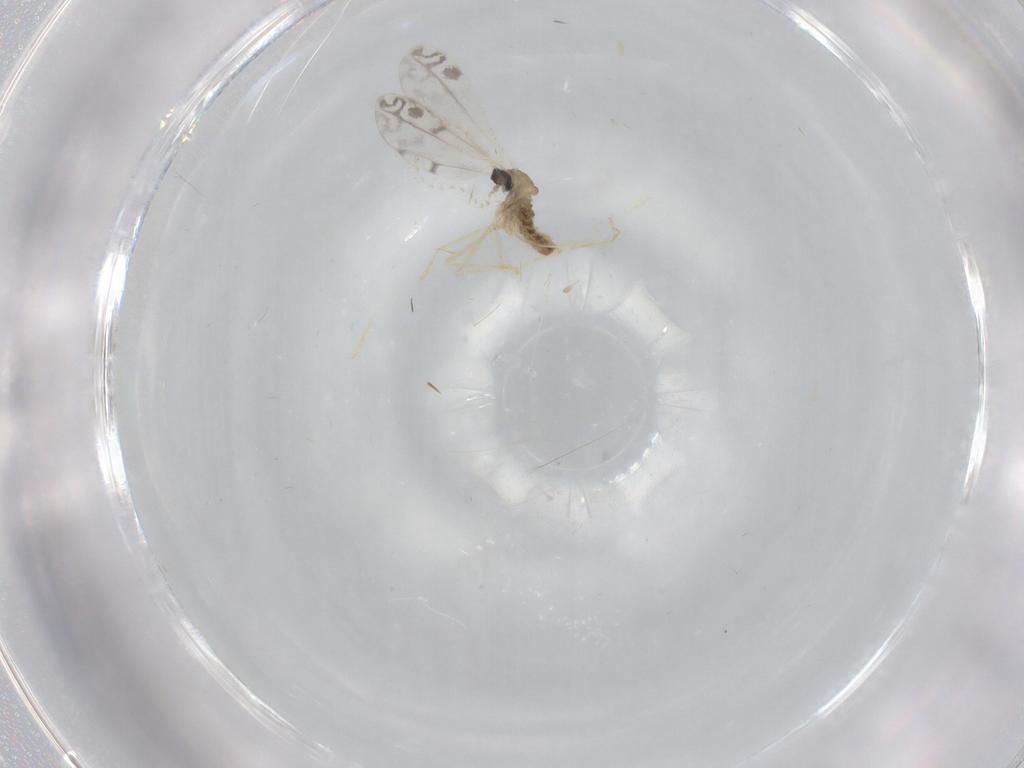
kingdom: Animalia
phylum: Arthropoda
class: Insecta
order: Diptera
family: Cecidomyiidae
